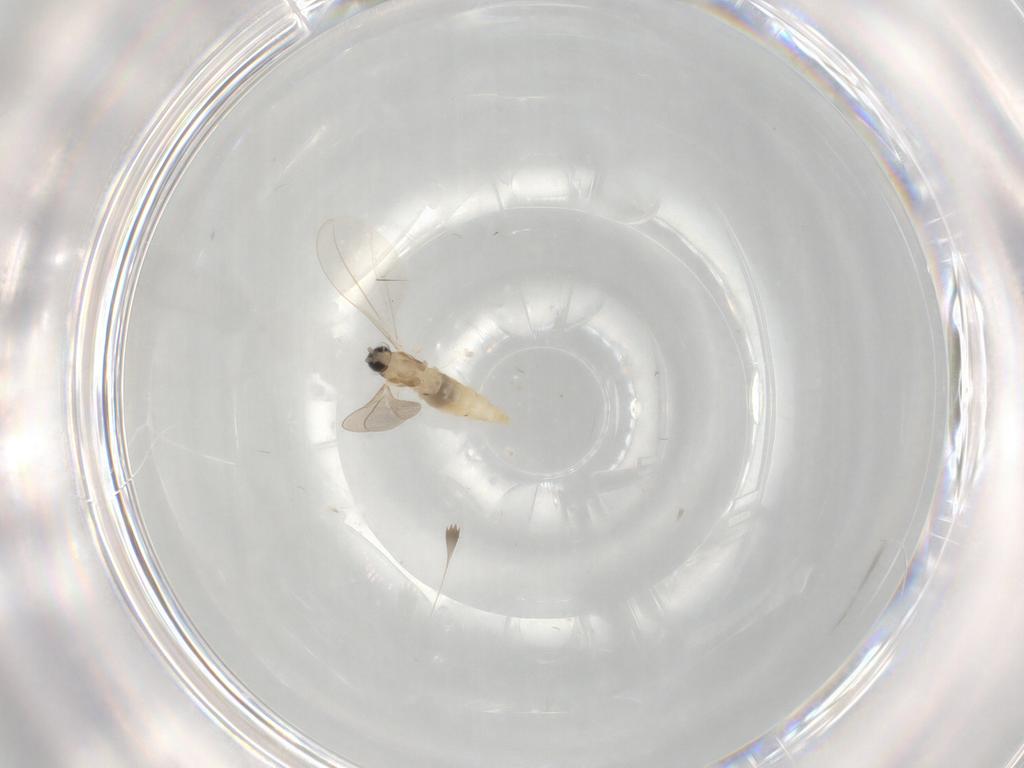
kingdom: Animalia
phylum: Arthropoda
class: Insecta
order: Diptera
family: Cecidomyiidae
